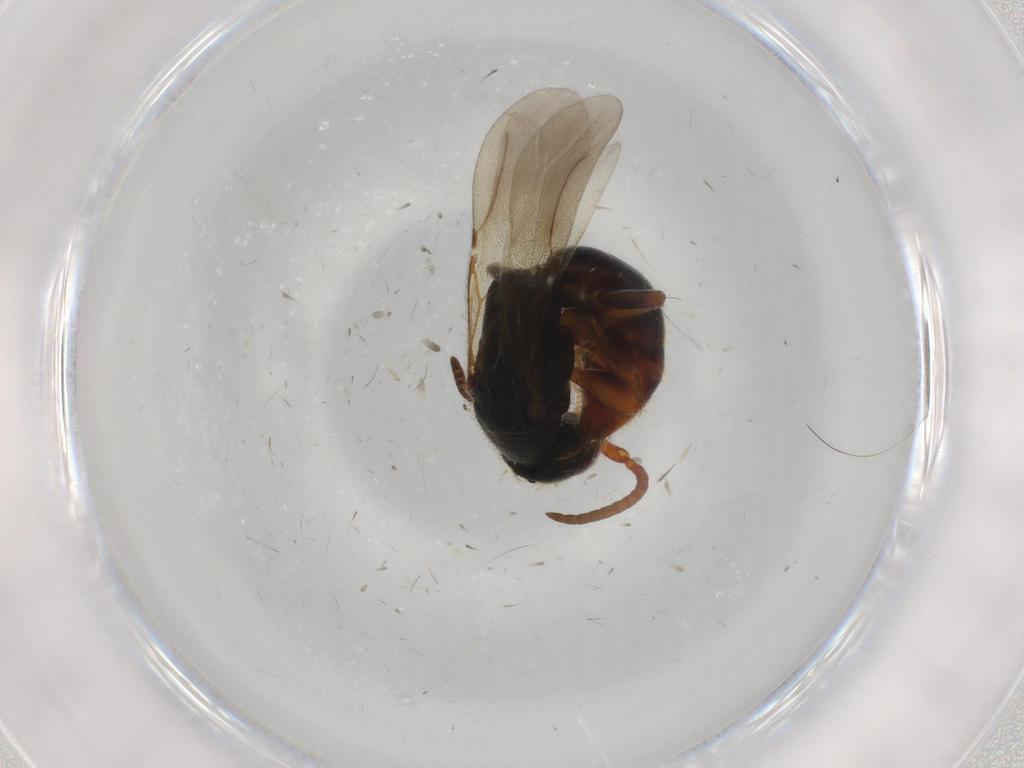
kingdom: Animalia
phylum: Arthropoda
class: Insecta
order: Hymenoptera
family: Bethylidae
